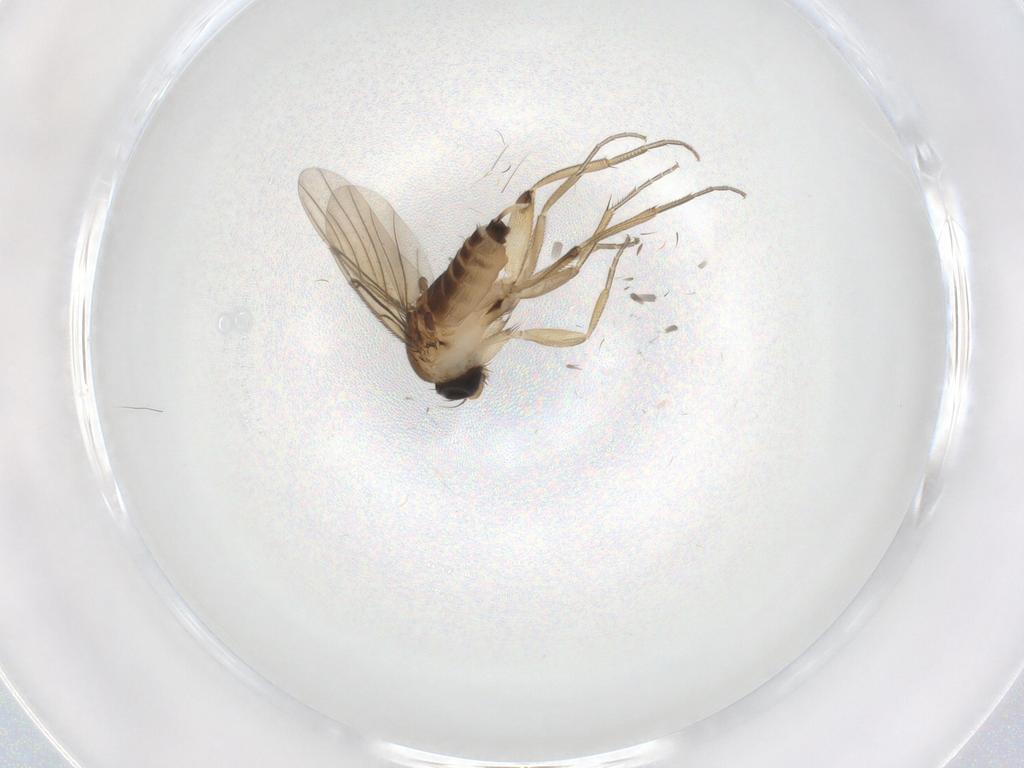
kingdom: Animalia
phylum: Arthropoda
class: Insecta
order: Diptera
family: Phoridae
